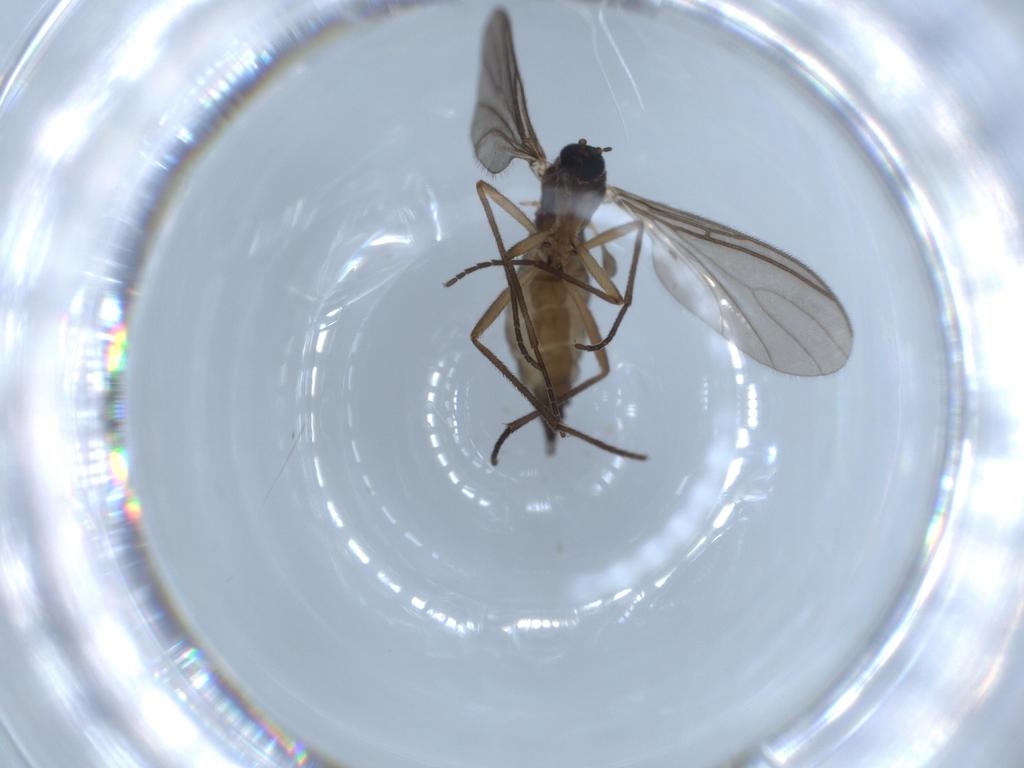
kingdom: Animalia
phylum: Arthropoda
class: Insecta
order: Diptera
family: Sciaridae
